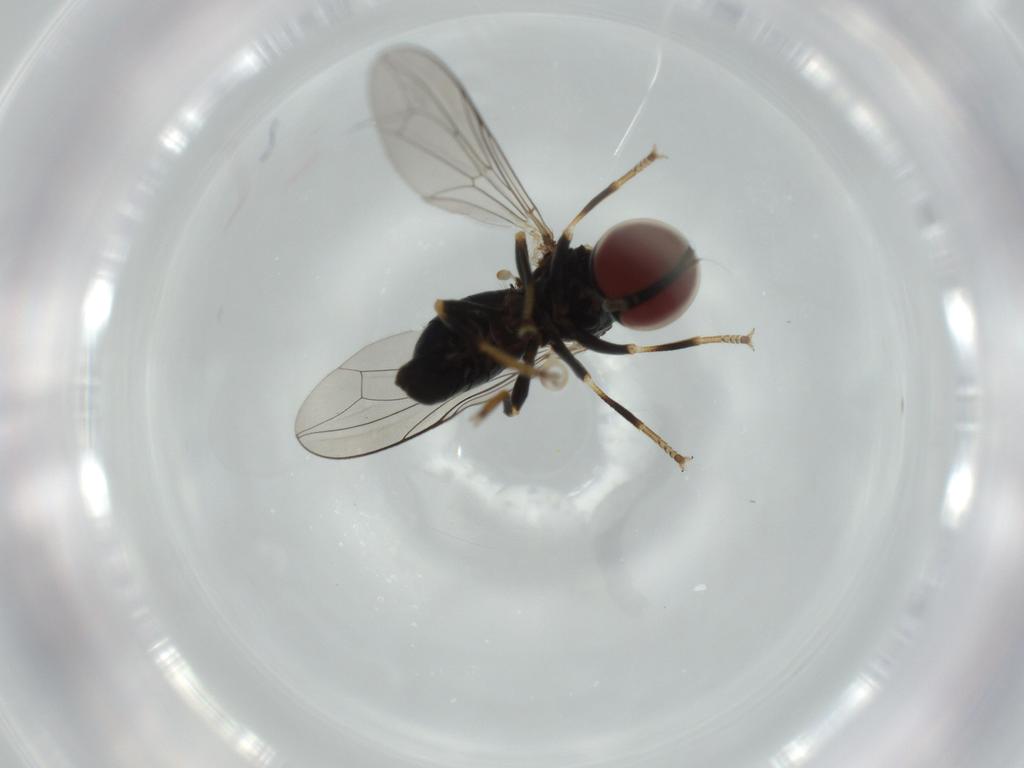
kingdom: Animalia
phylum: Arthropoda
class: Insecta
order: Diptera
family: Pipunculidae
